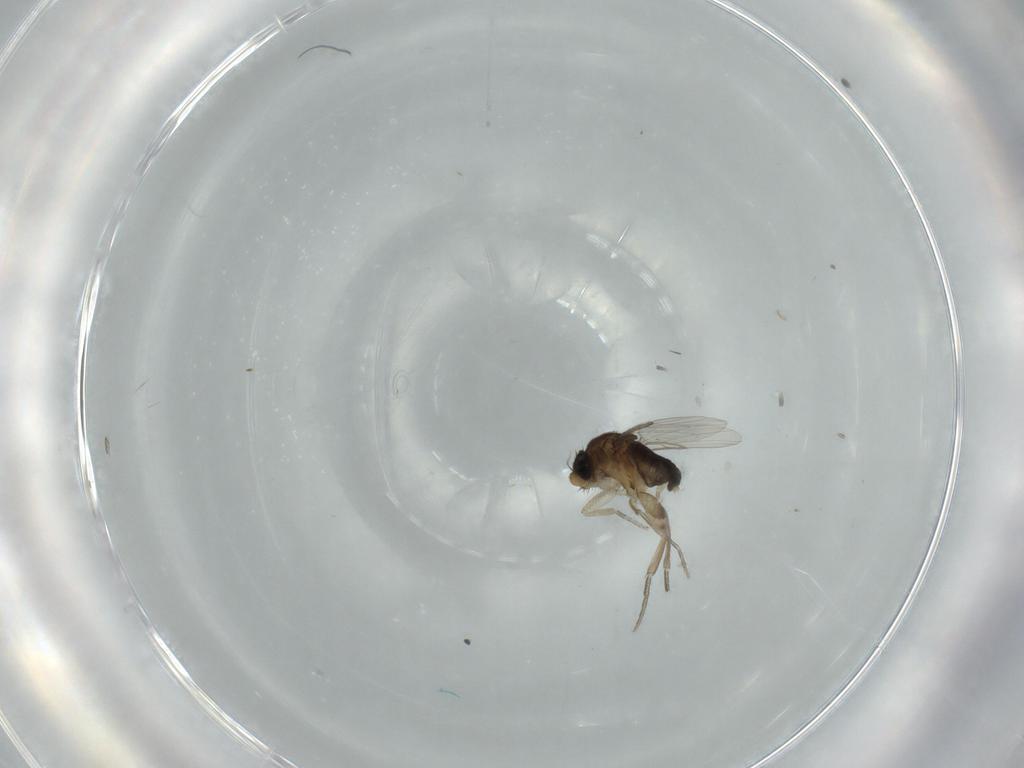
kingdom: Animalia
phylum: Arthropoda
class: Insecta
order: Diptera
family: Phoridae
